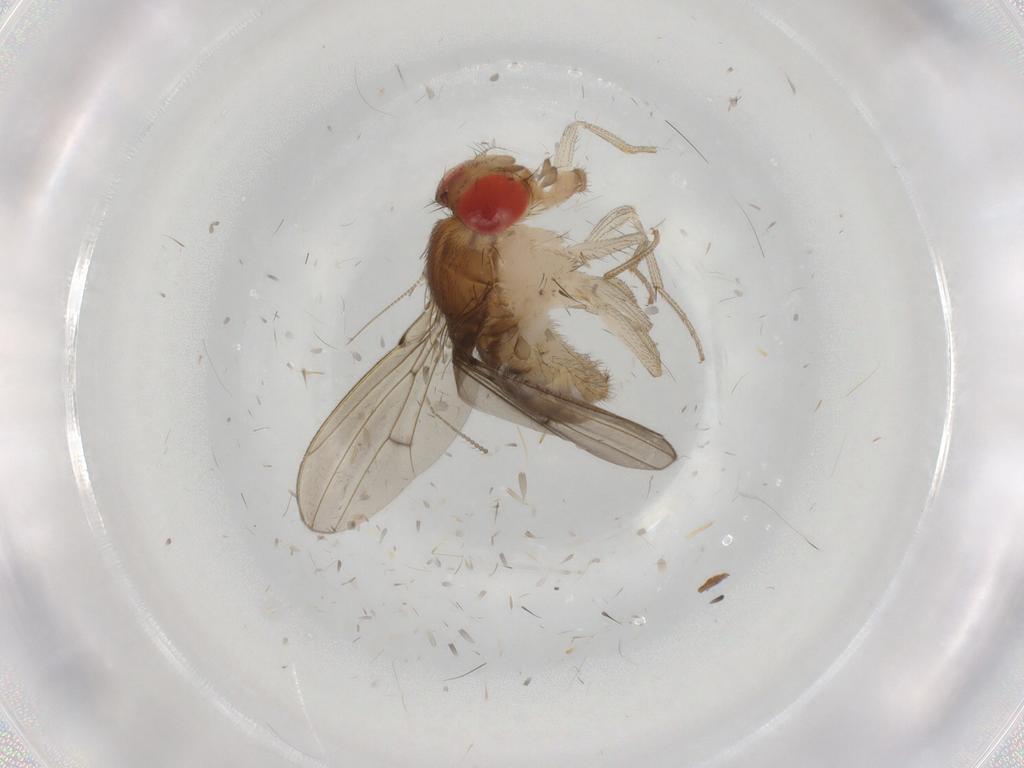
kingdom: Animalia
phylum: Arthropoda
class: Insecta
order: Diptera
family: Drosophilidae
